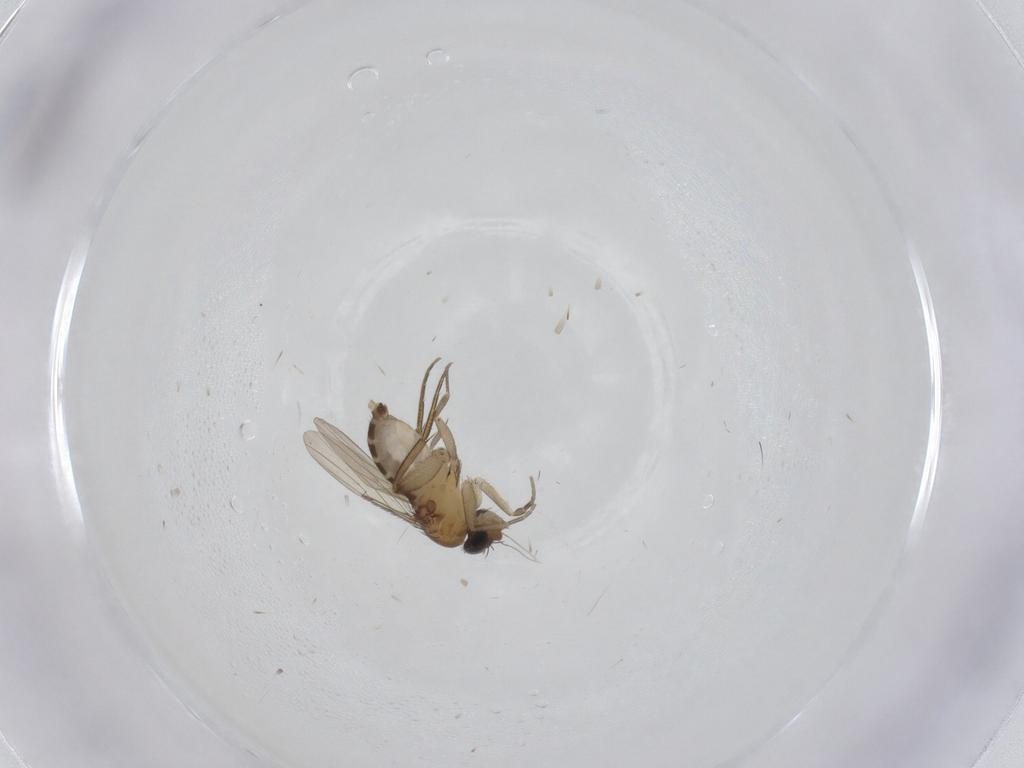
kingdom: Animalia
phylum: Arthropoda
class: Insecta
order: Diptera
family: Phoridae
